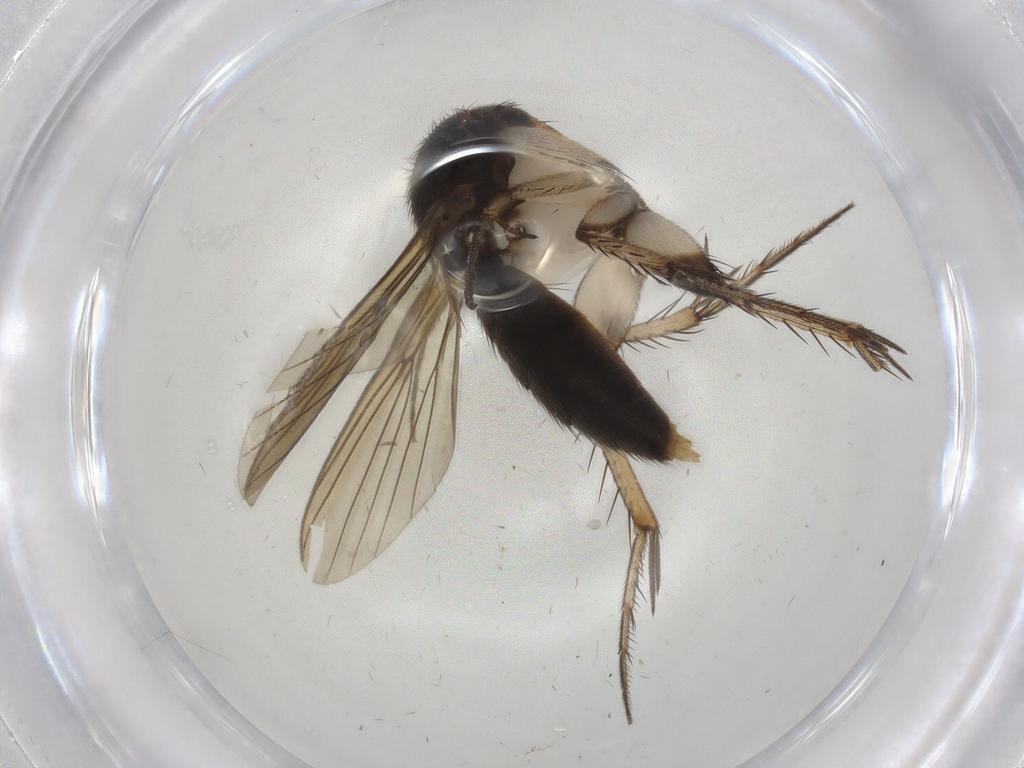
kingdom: Animalia
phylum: Arthropoda
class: Insecta
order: Diptera
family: Mycetophilidae
